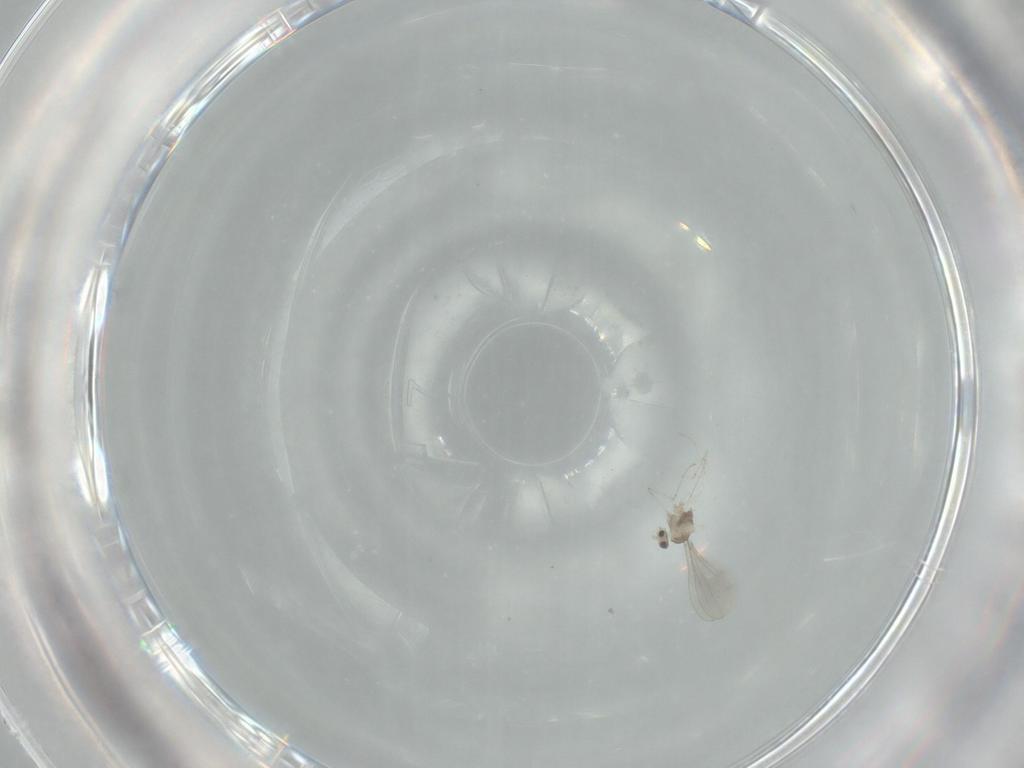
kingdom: Animalia
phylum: Arthropoda
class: Insecta
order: Diptera
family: Cecidomyiidae
